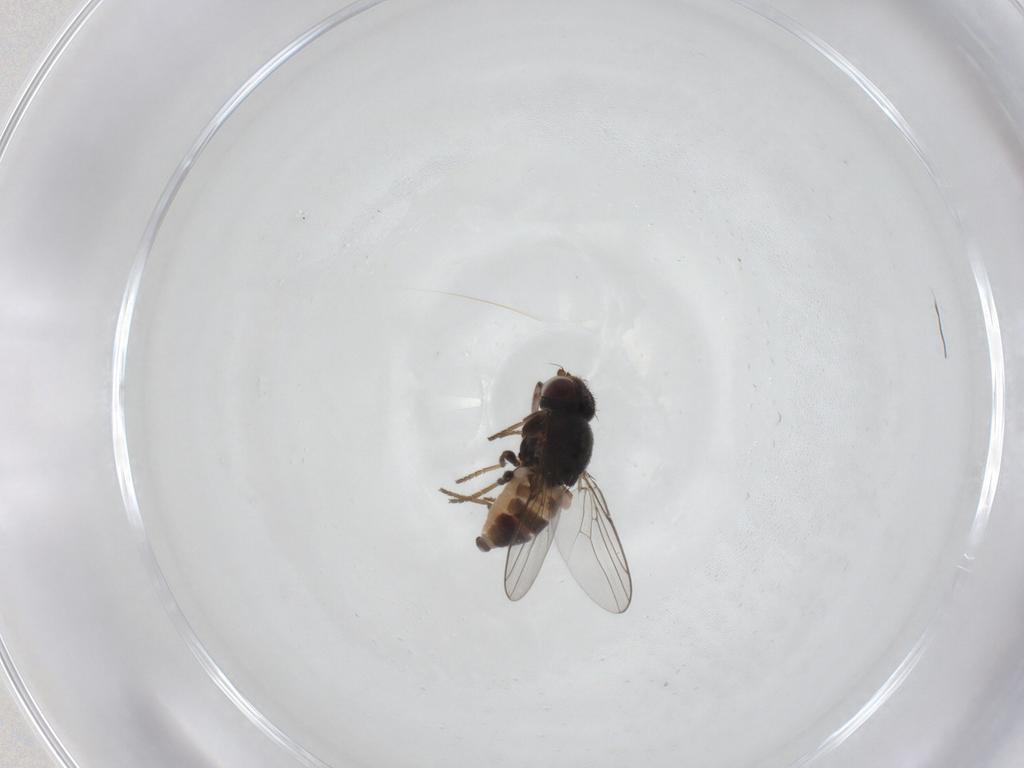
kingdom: Animalia
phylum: Arthropoda
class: Insecta
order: Diptera
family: Chloropidae
